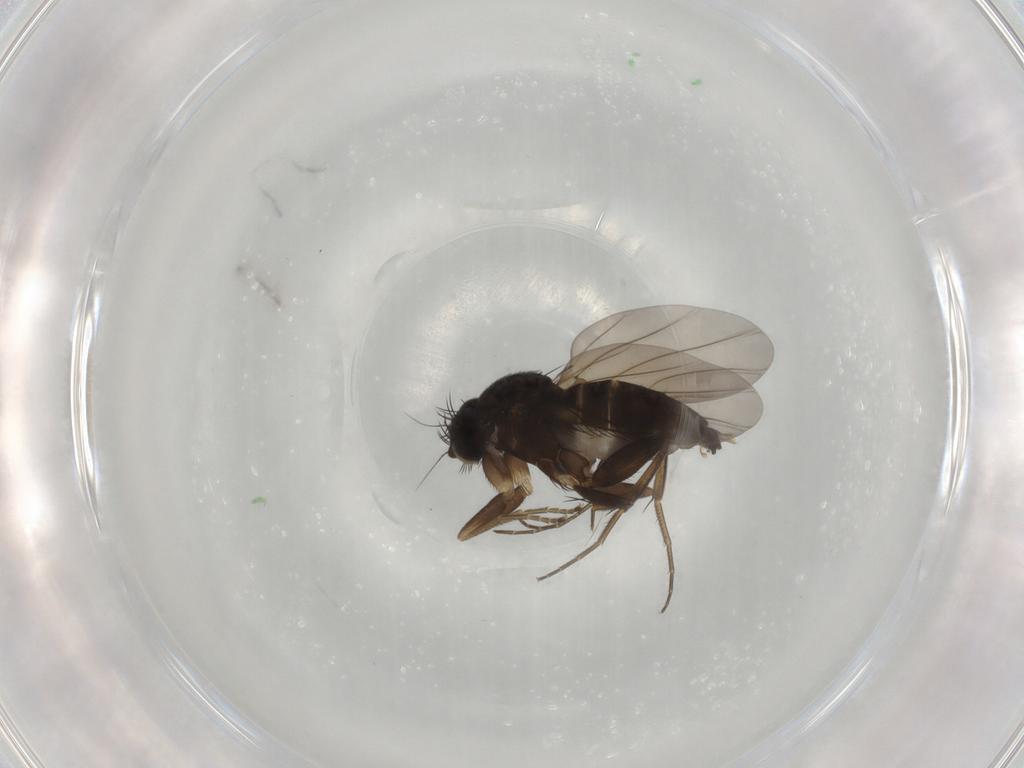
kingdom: Animalia
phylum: Arthropoda
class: Insecta
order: Diptera
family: Phoridae
